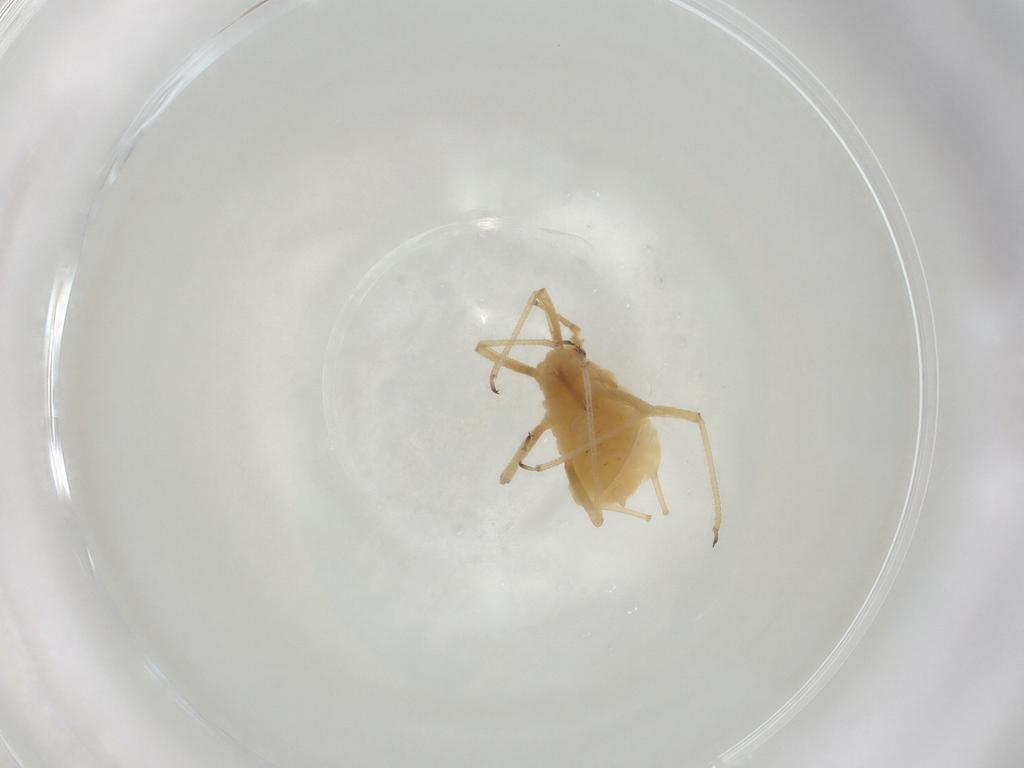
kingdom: Animalia
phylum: Arthropoda
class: Insecta
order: Hemiptera
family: Aphididae
